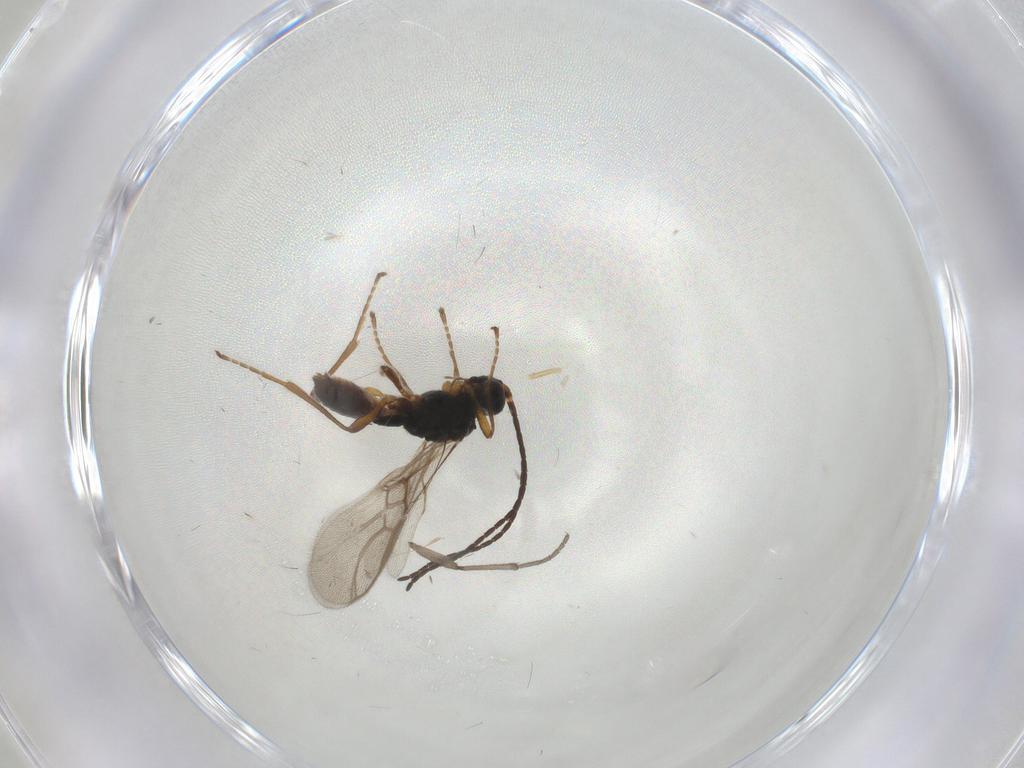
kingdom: Animalia
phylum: Arthropoda
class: Insecta
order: Hymenoptera
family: Braconidae
